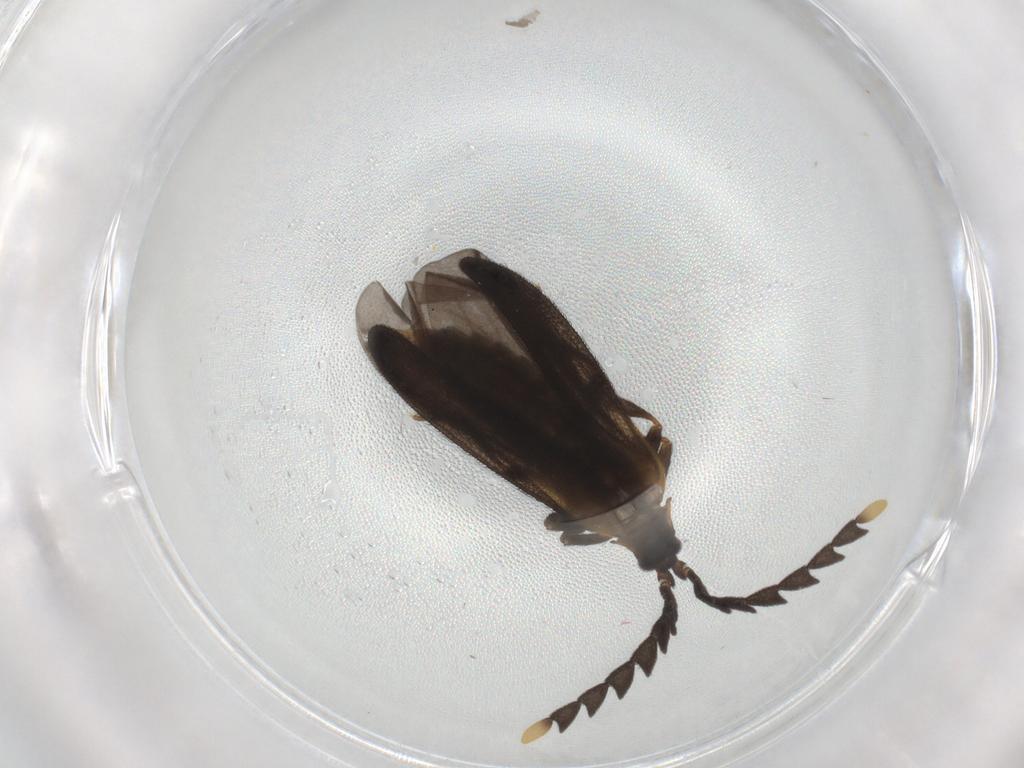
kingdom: Animalia
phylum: Arthropoda
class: Insecta
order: Coleoptera
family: Lycidae
